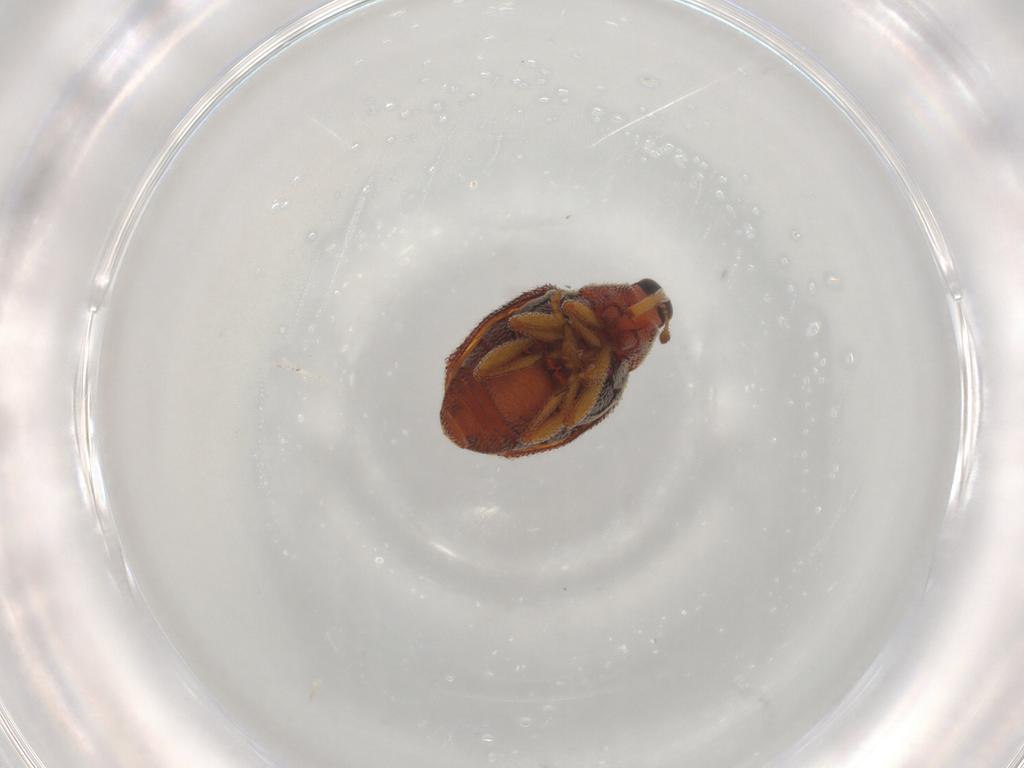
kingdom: Animalia
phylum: Arthropoda
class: Insecta
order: Coleoptera
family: Curculionidae
